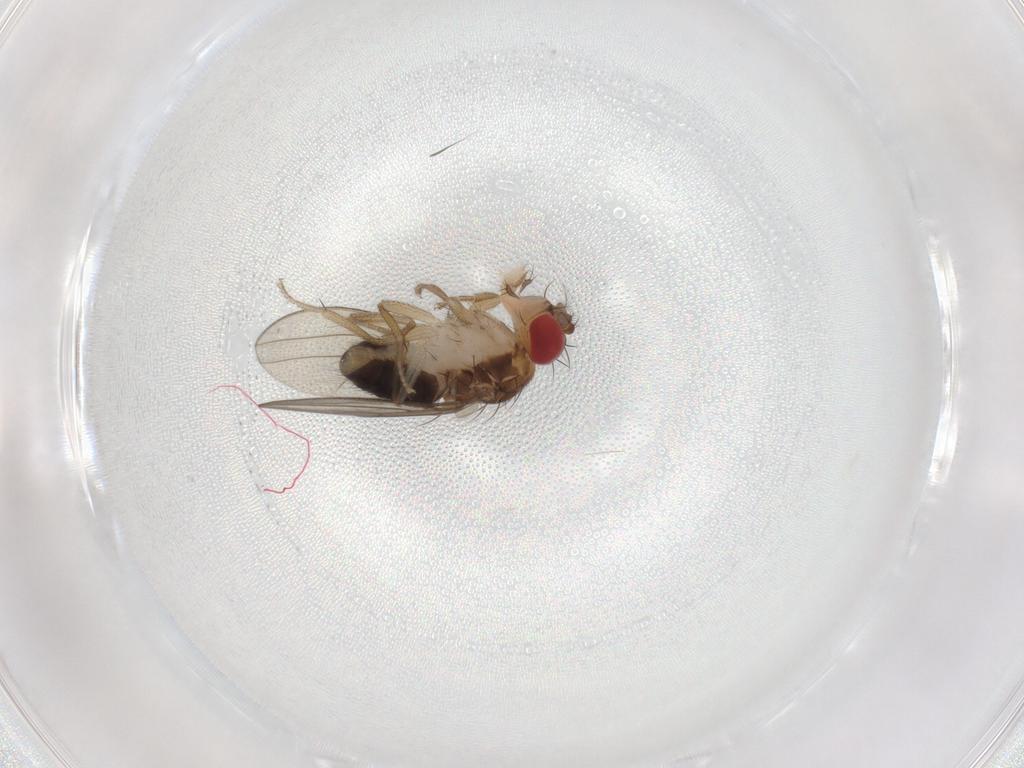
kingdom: Animalia
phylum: Arthropoda
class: Insecta
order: Diptera
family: Drosophilidae
